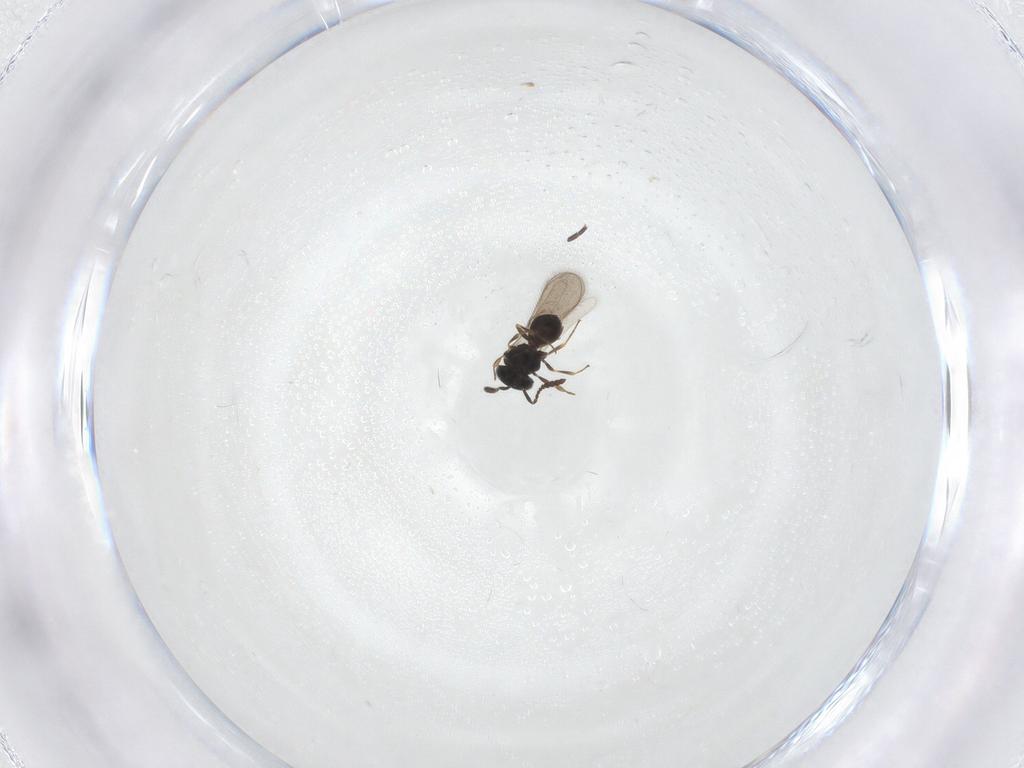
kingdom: Animalia
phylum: Arthropoda
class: Insecta
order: Hymenoptera
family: Scelionidae
